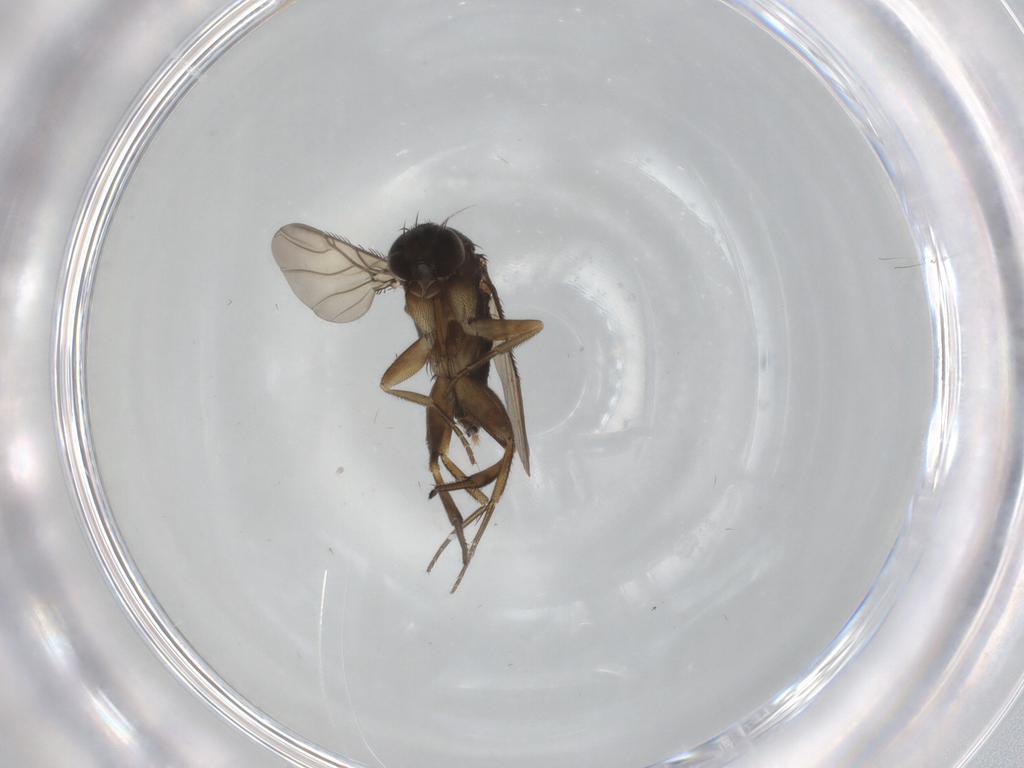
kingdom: Animalia
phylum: Arthropoda
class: Insecta
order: Diptera
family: Phoridae
